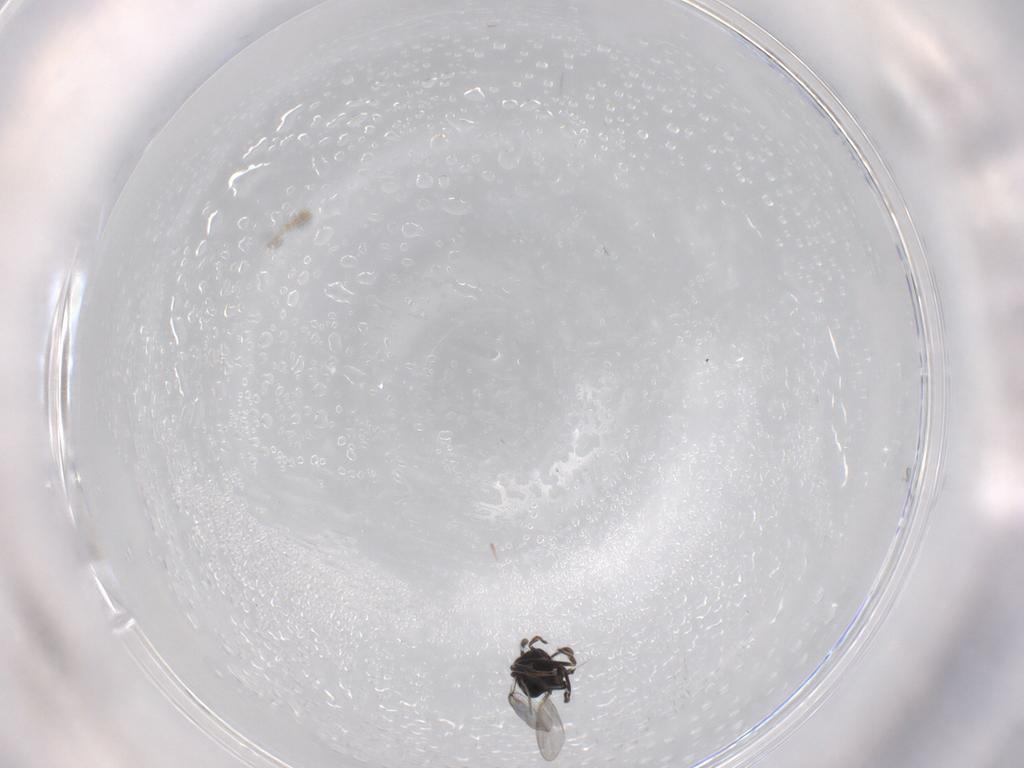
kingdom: Animalia
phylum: Arthropoda
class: Insecta
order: Hymenoptera
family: Encyrtidae
